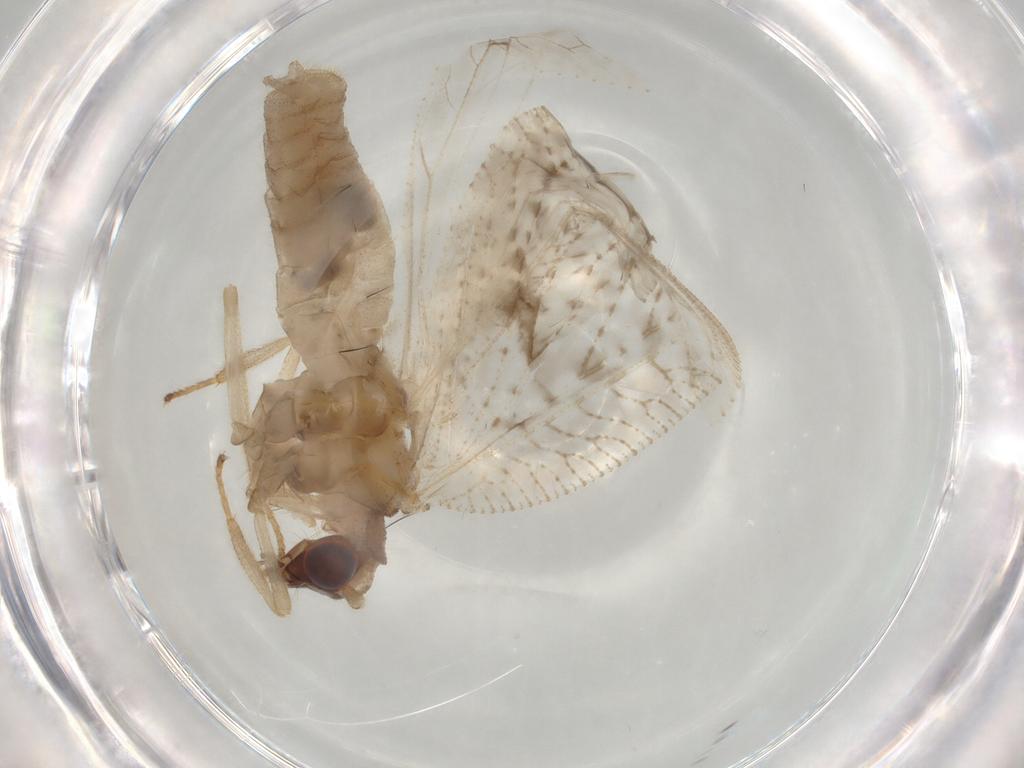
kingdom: Animalia
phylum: Arthropoda
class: Insecta
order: Neuroptera
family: Hemerobiidae
